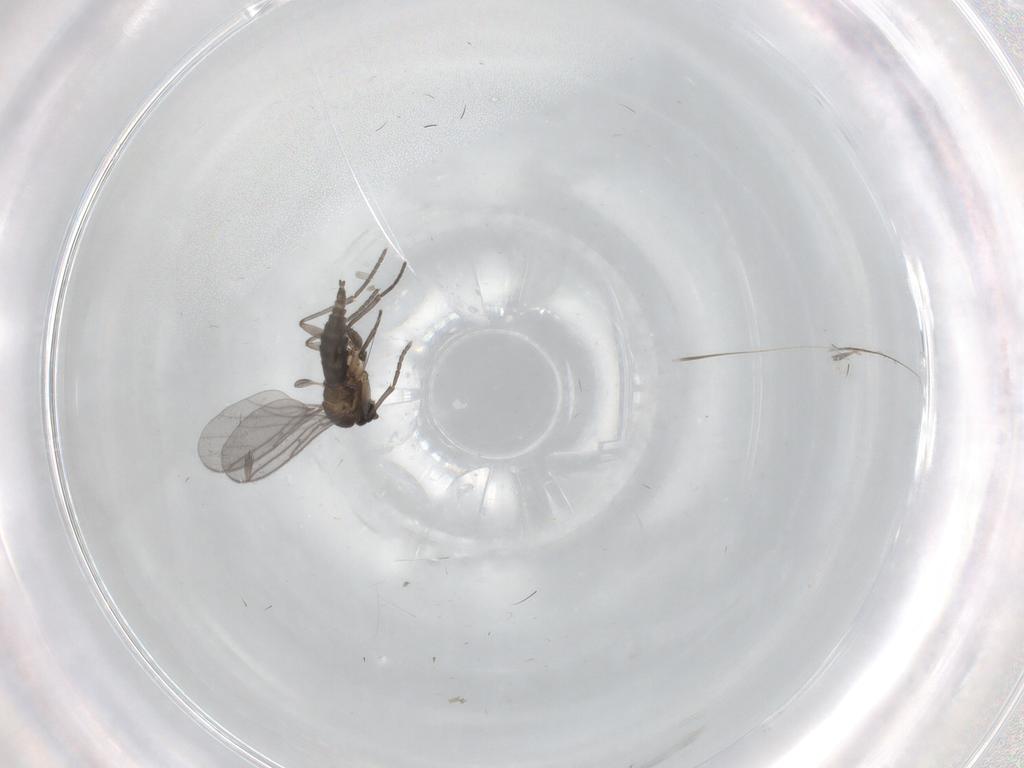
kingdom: Animalia
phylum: Arthropoda
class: Insecta
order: Diptera
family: Sciaridae
